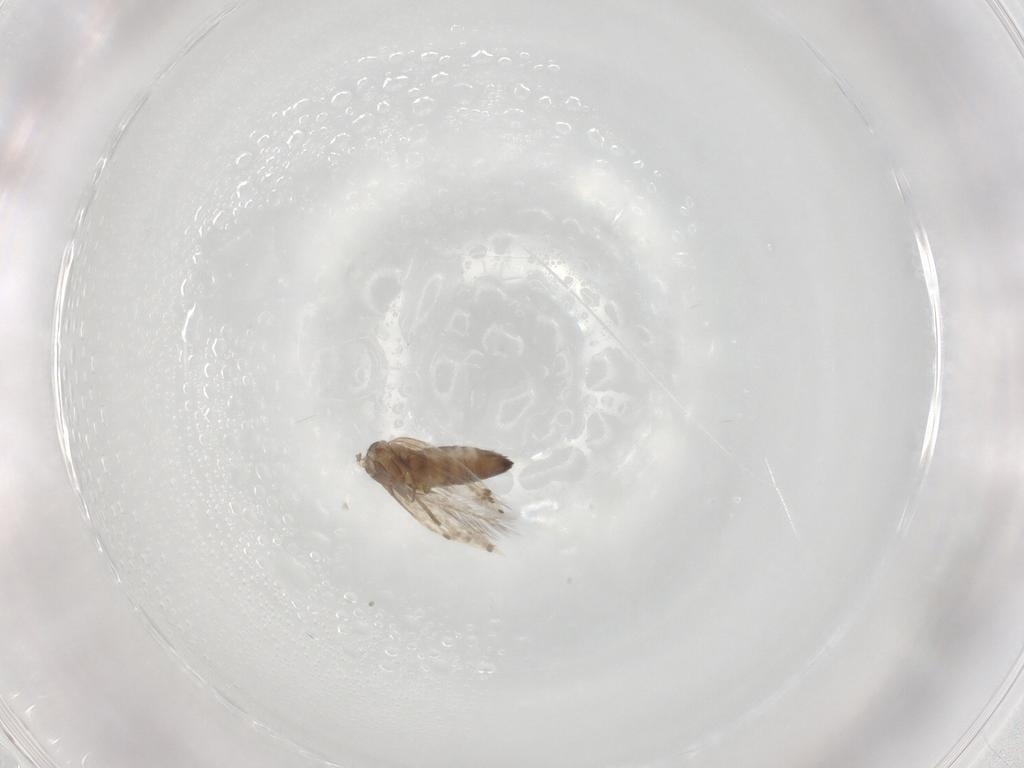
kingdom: Animalia
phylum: Arthropoda
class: Insecta
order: Lepidoptera
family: Heliozelidae
